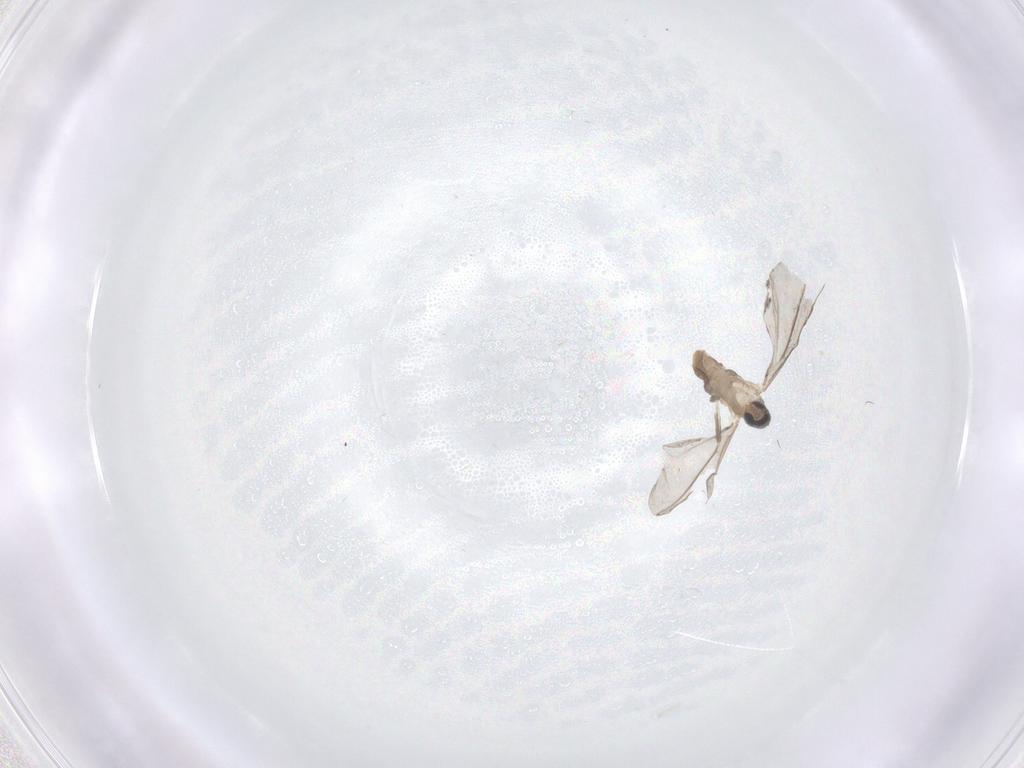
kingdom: Animalia
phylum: Arthropoda
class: Insecta
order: Diptera
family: Cecidomyiidae
